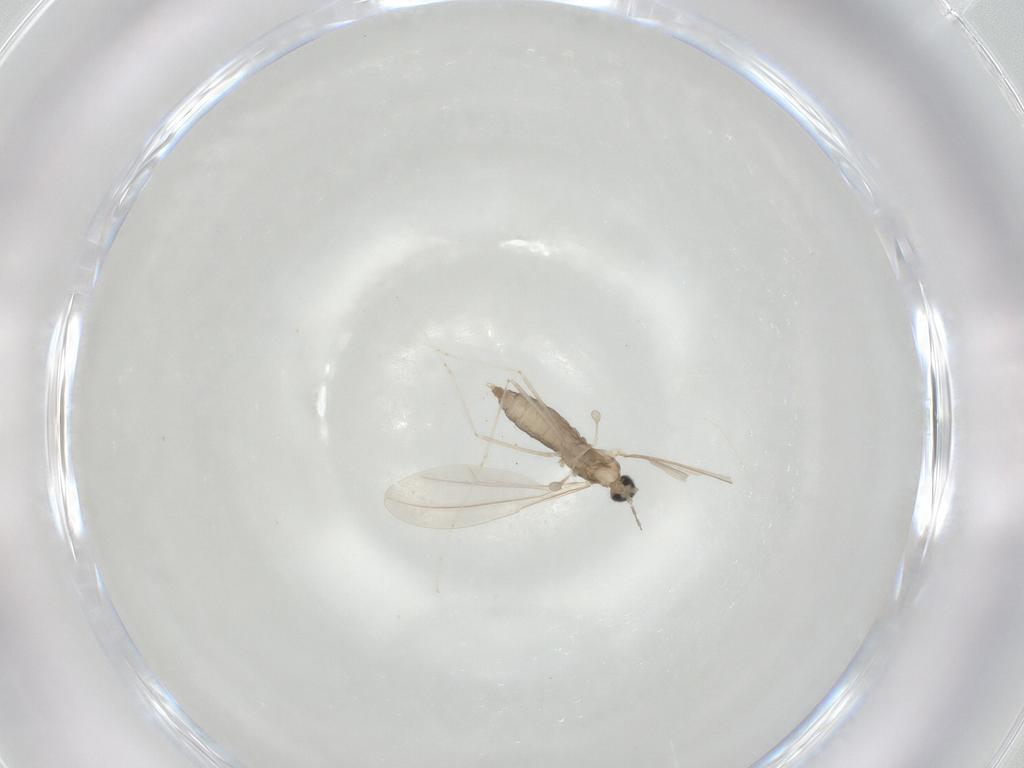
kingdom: Animalia
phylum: Arthropoda
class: Insecta
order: Diptera
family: Cecidomyiidae
